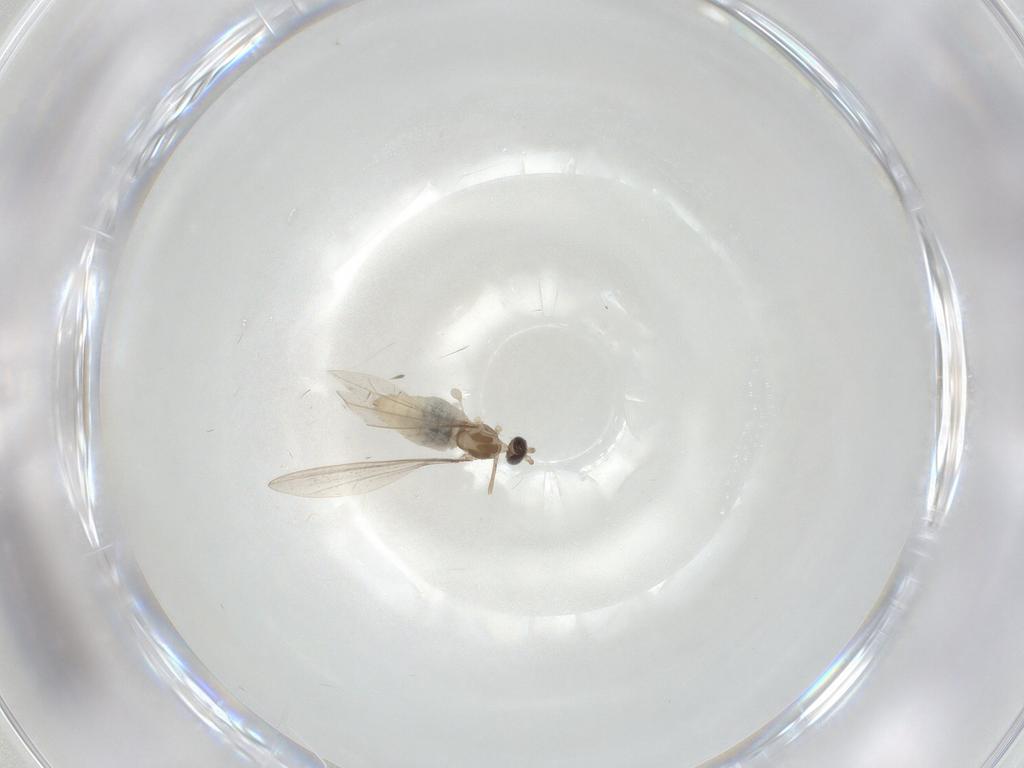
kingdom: Animalia
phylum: Arthropoda
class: Insecta
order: Diptera
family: Cecidomyiidae
